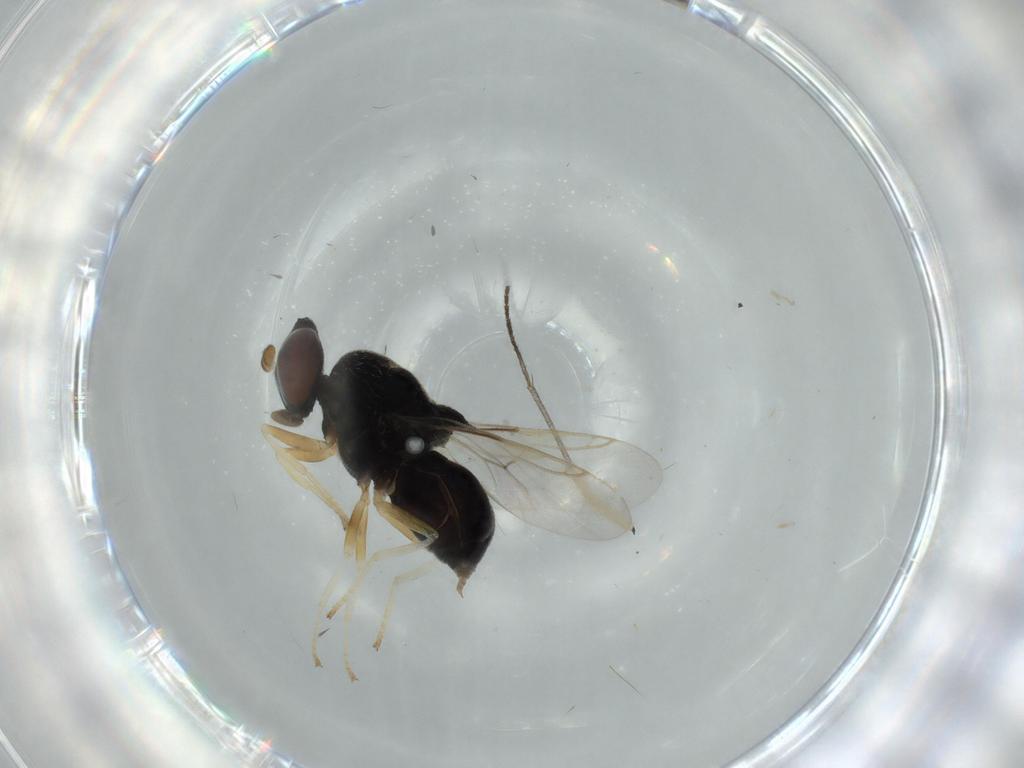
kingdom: Animalia
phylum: Arthropoda
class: Insecta
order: Diptera
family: Stratiomyidae
